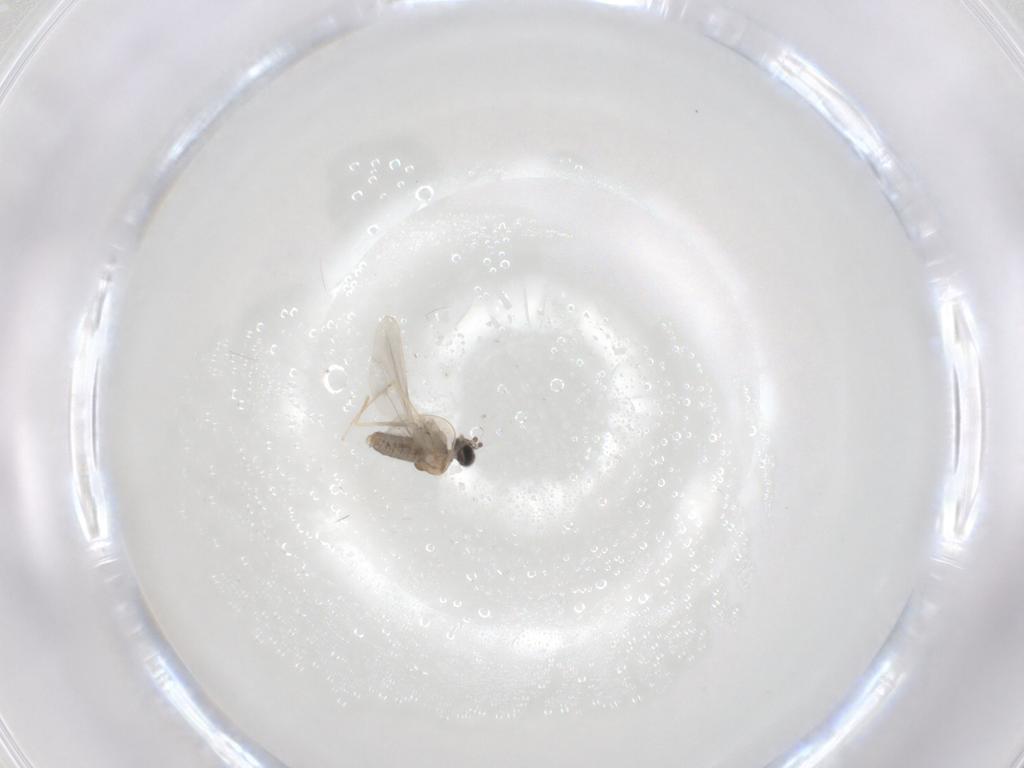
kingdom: Animalia
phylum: Arthropoda
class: Insecta
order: Diptera
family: Cecidomyiidae
